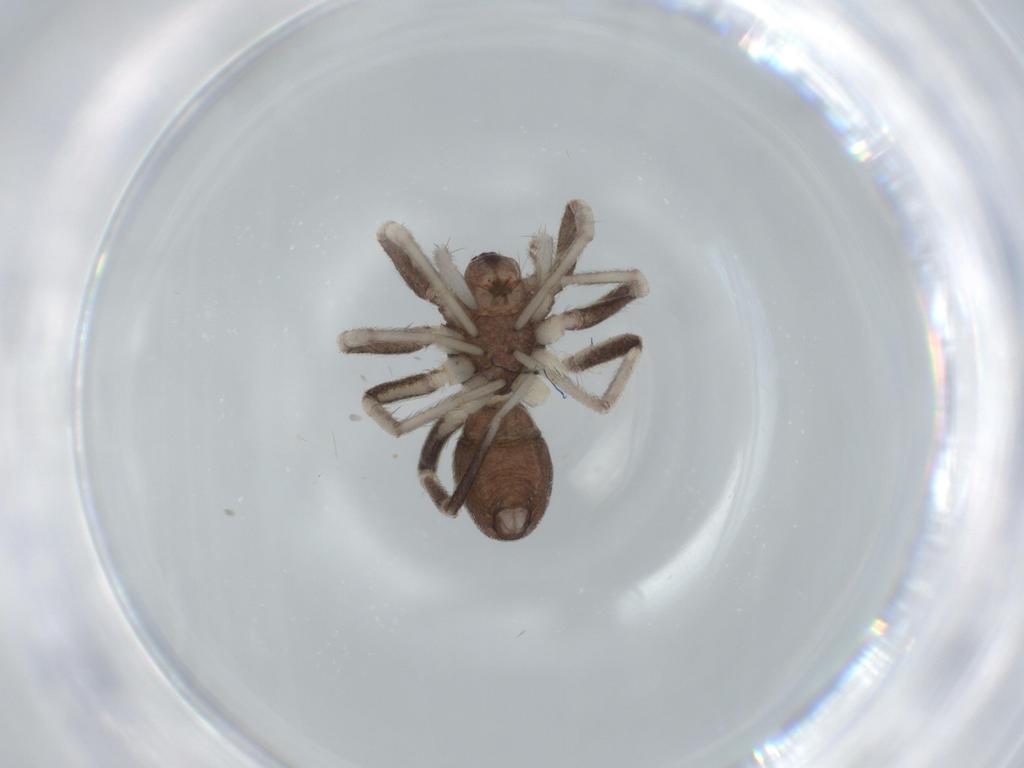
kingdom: Animalia
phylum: Arthropoda
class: Arachnida
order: Araneae
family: Corinnidae
